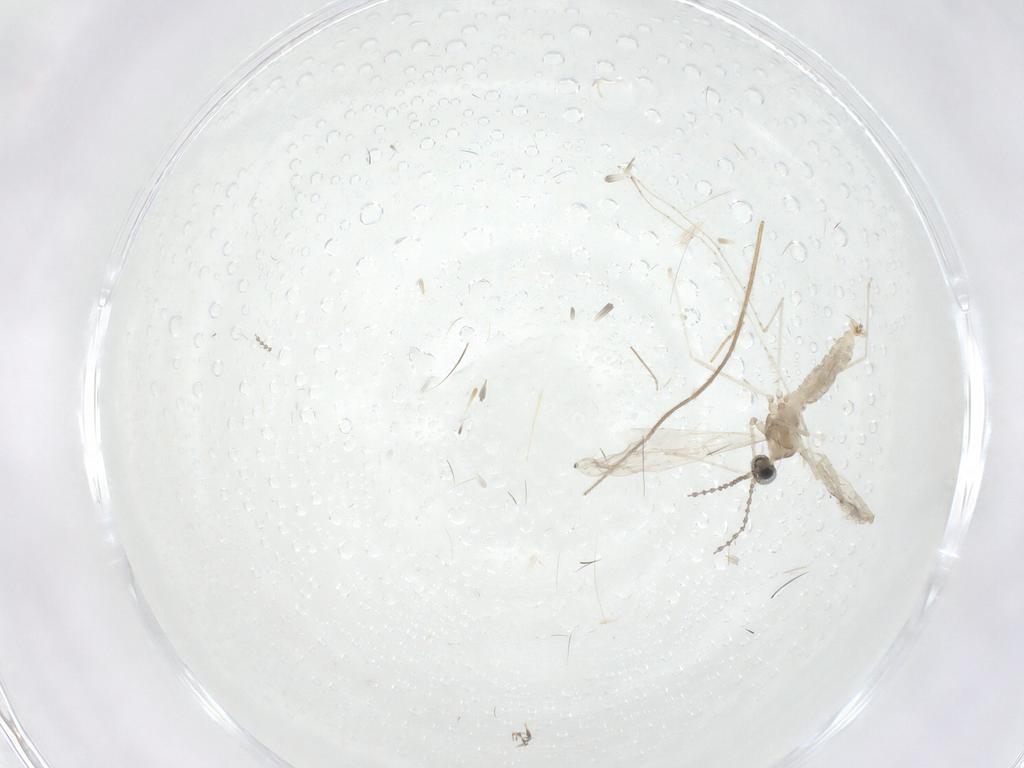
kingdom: Animalia
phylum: Arthropoda
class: Insecta
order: Diptera
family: Cecidomyiidae
